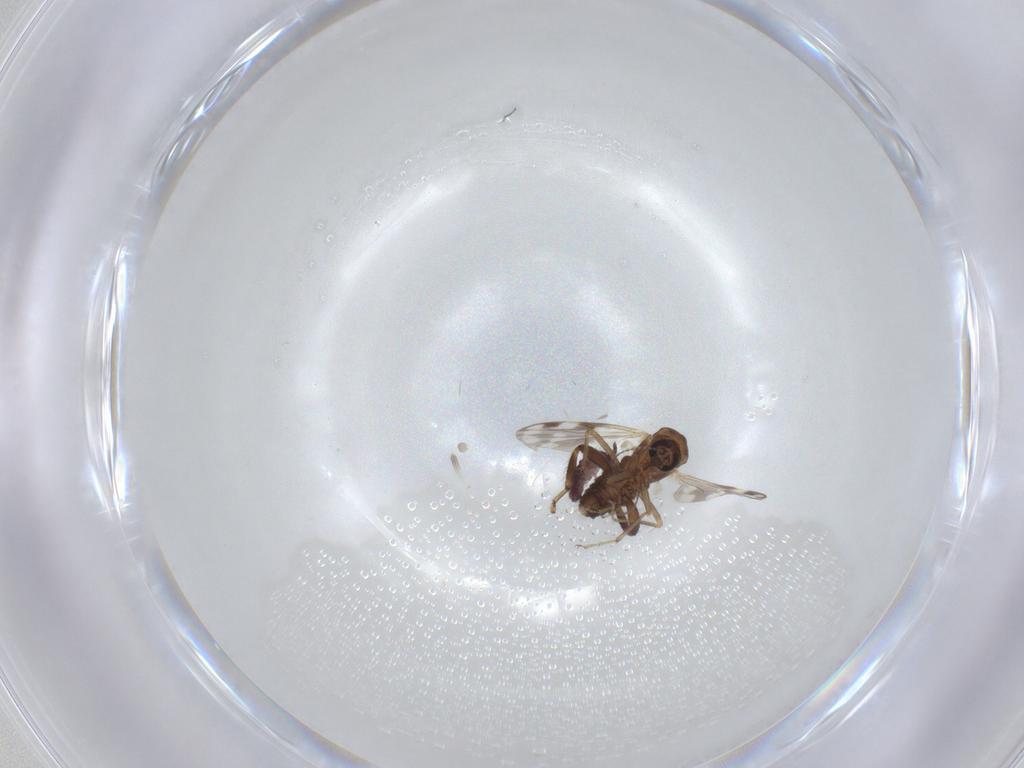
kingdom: Animalia
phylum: Arthropoda
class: Insecta
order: Diptera
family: Ceratopogonidae
